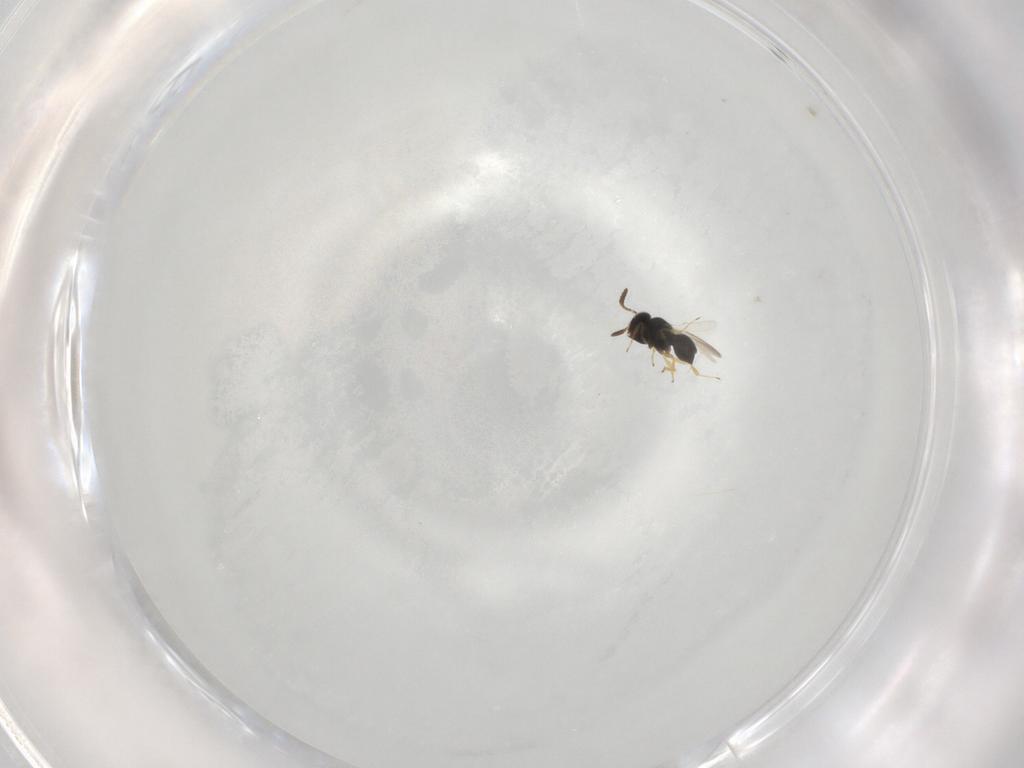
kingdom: Animalia
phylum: Arthropoda
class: Insecta
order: Hymenoptera
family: Scelionidae
